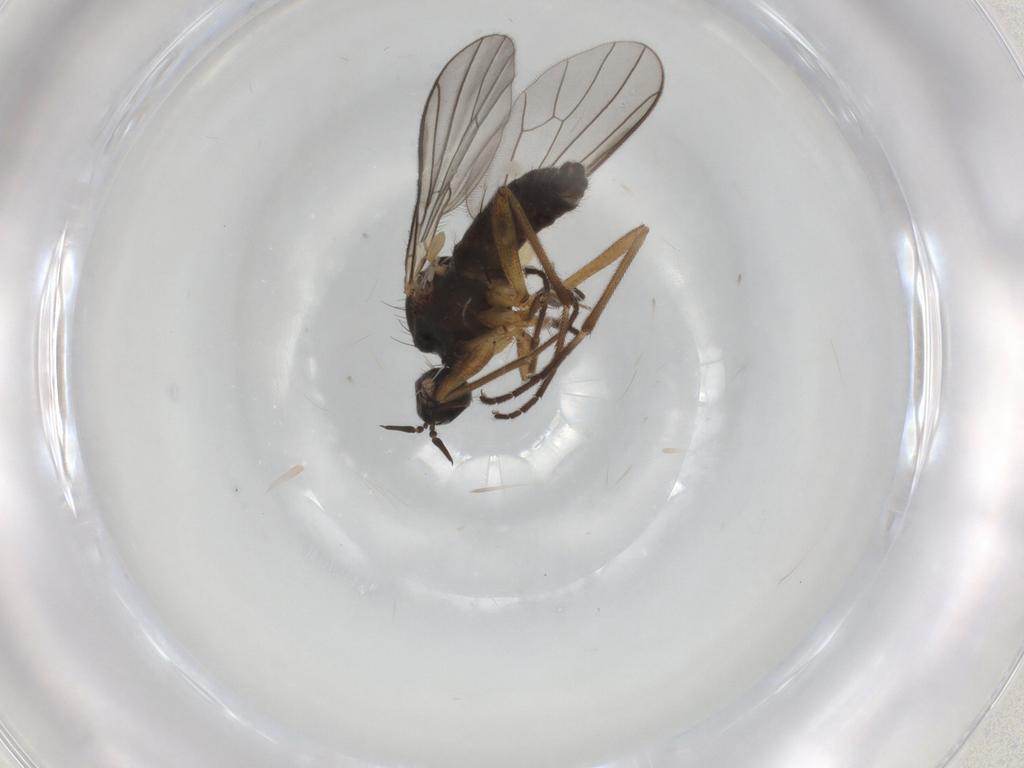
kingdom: Animalia
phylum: Arthropoda
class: Insecta
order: Diptera
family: Empididae
